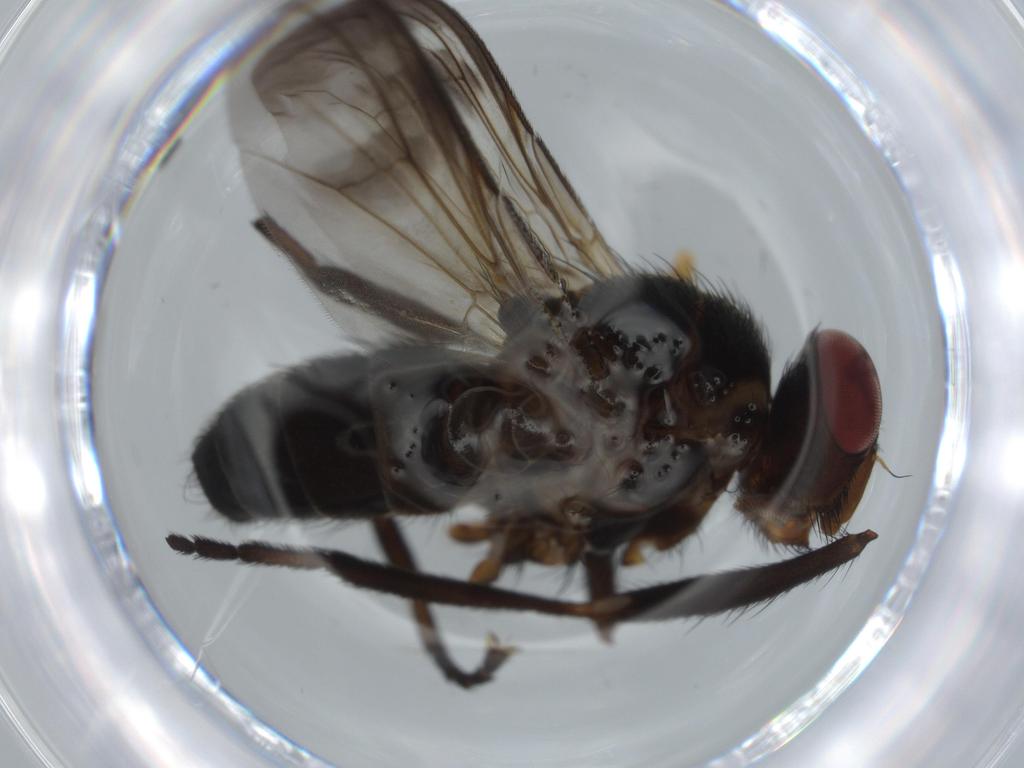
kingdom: Animalia
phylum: Arthropoda
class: Insecta
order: Diptera
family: Calliphoridae
